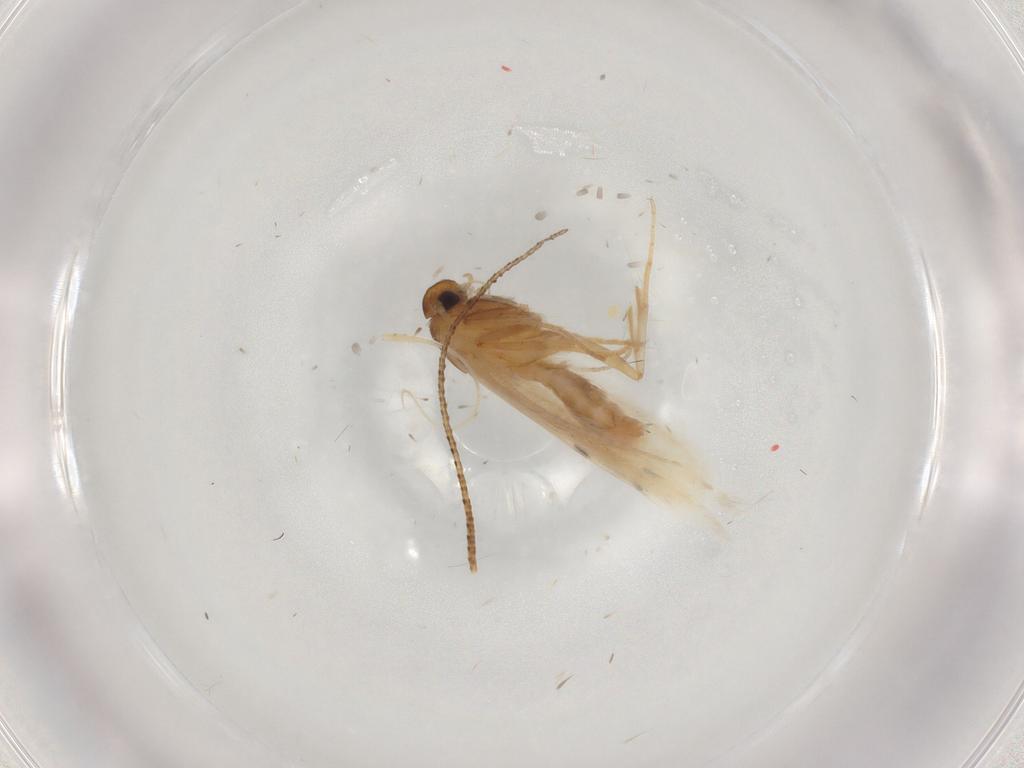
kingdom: Animalia
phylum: Arthropoda
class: Insecta
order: Lepidoptera
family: Gelechiidae
